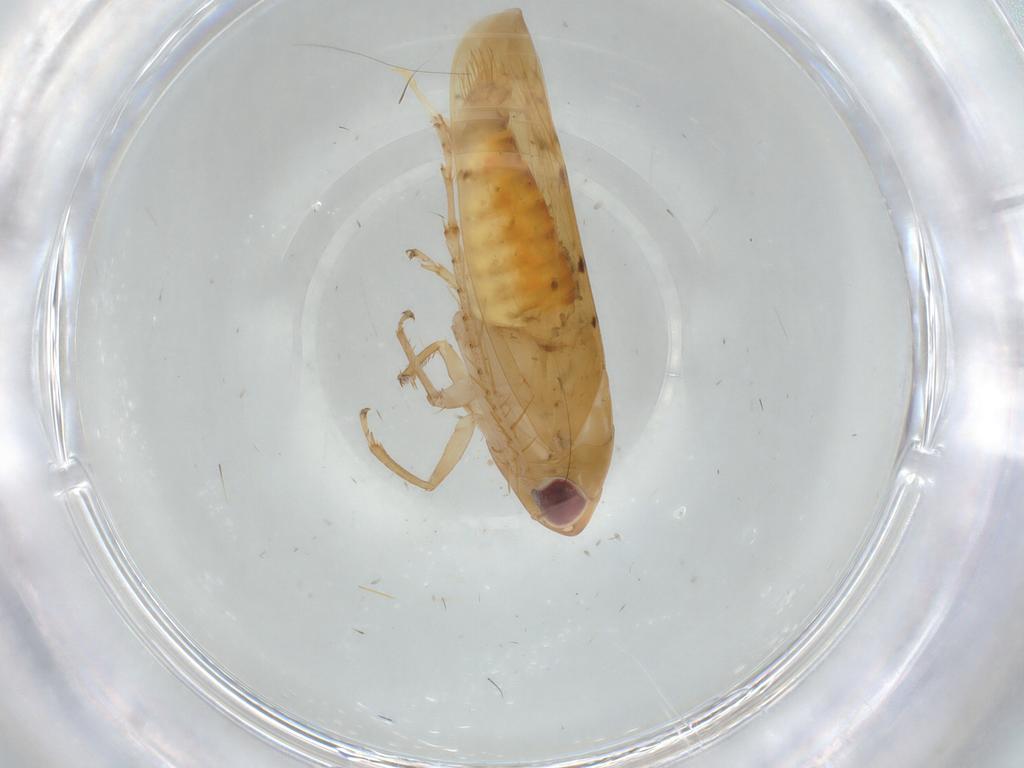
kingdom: Animalia
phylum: Arthropoda
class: Insecta
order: Hemiptera
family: Cicadellidae
